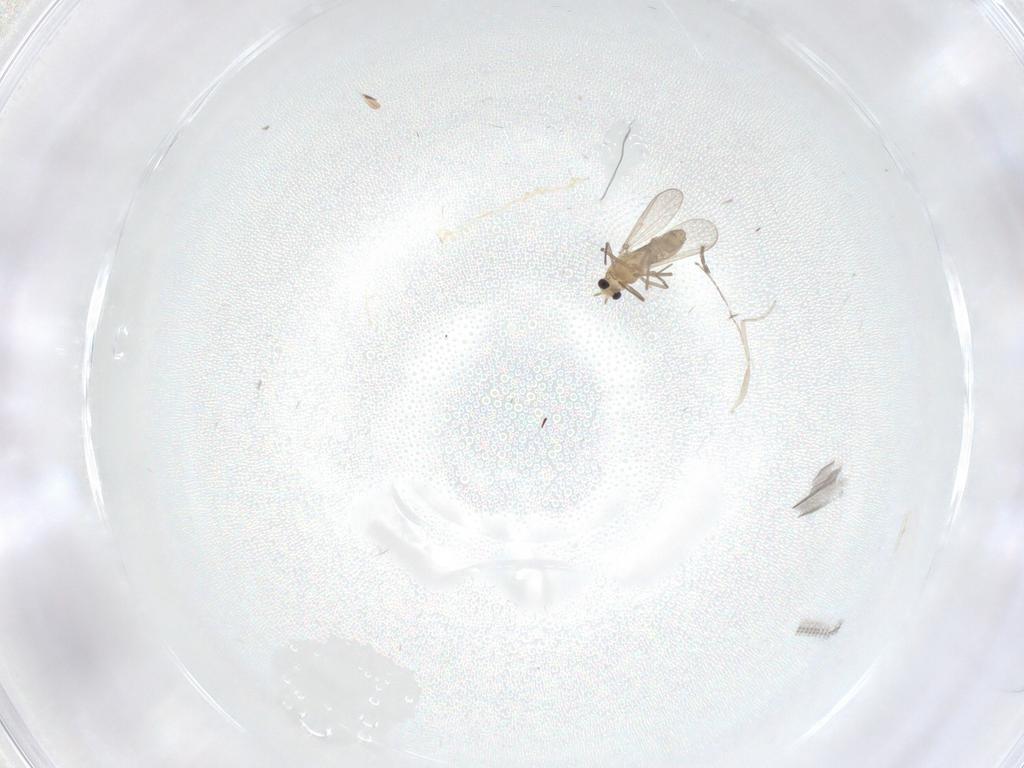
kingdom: Animalia
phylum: Arthropoda
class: Insecta
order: Diptera
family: Chironomidae
